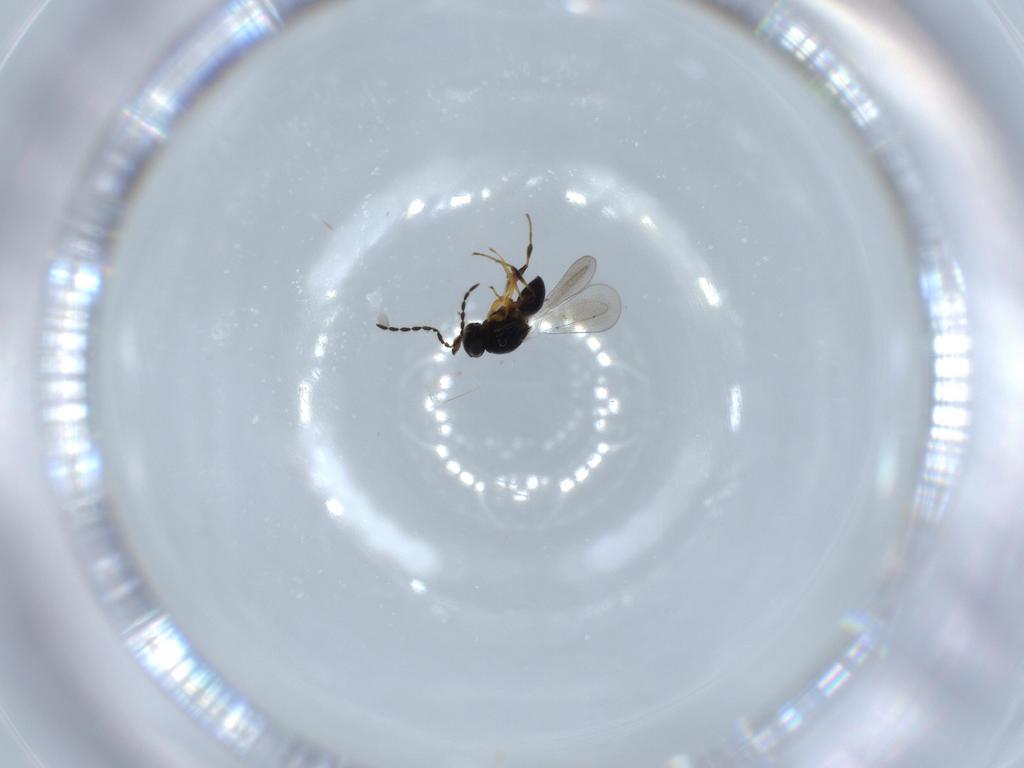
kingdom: Animalia
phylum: Arthropoda
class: Insecta
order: Hymenoptera
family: Platygastridae
